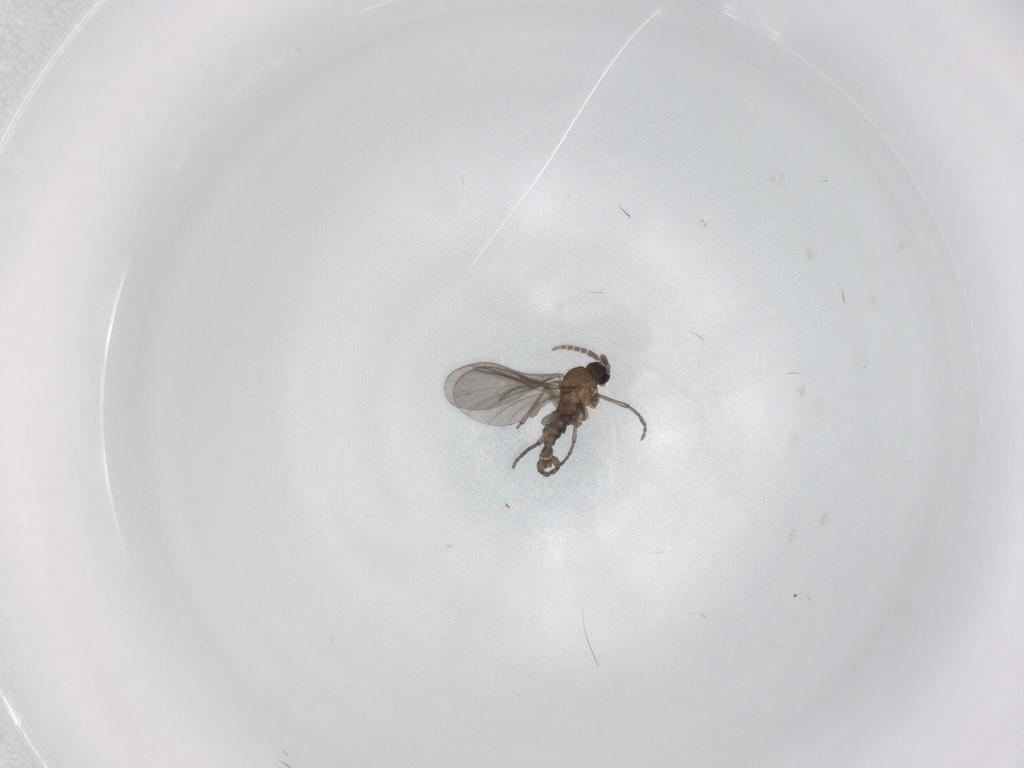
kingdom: Animalia
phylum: Arthropoda
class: Insecta
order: Diptera
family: Sciaridae
